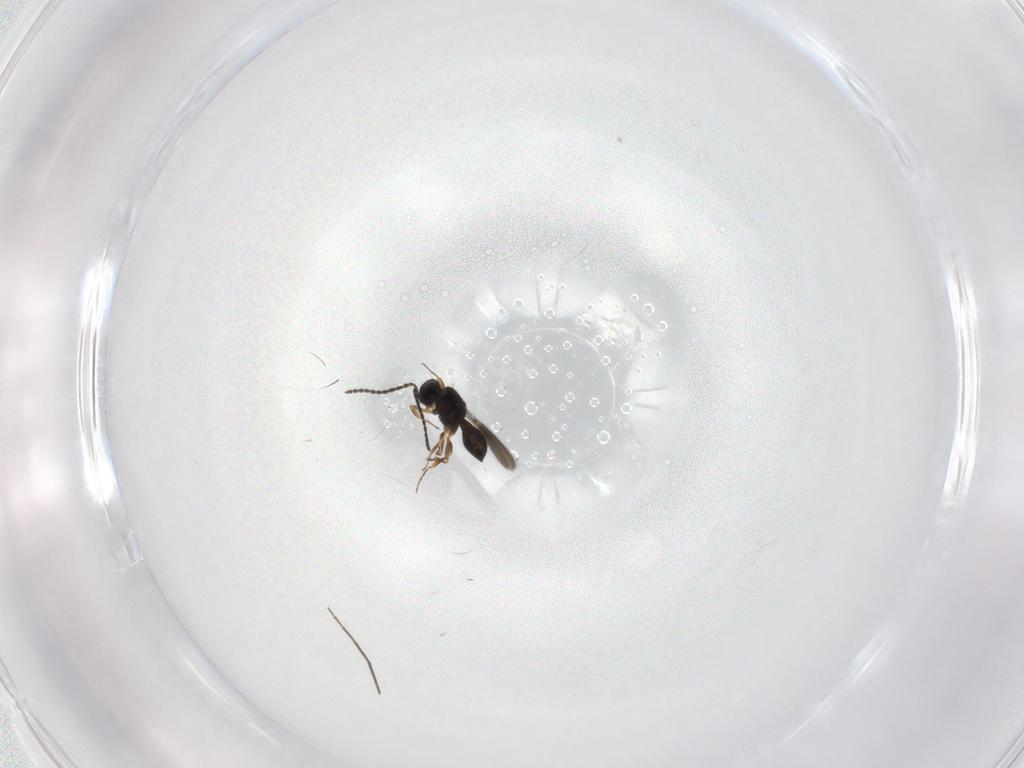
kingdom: Animalia
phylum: Arthropoda
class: Insecta
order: Hymenoptera
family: Scelionidae
